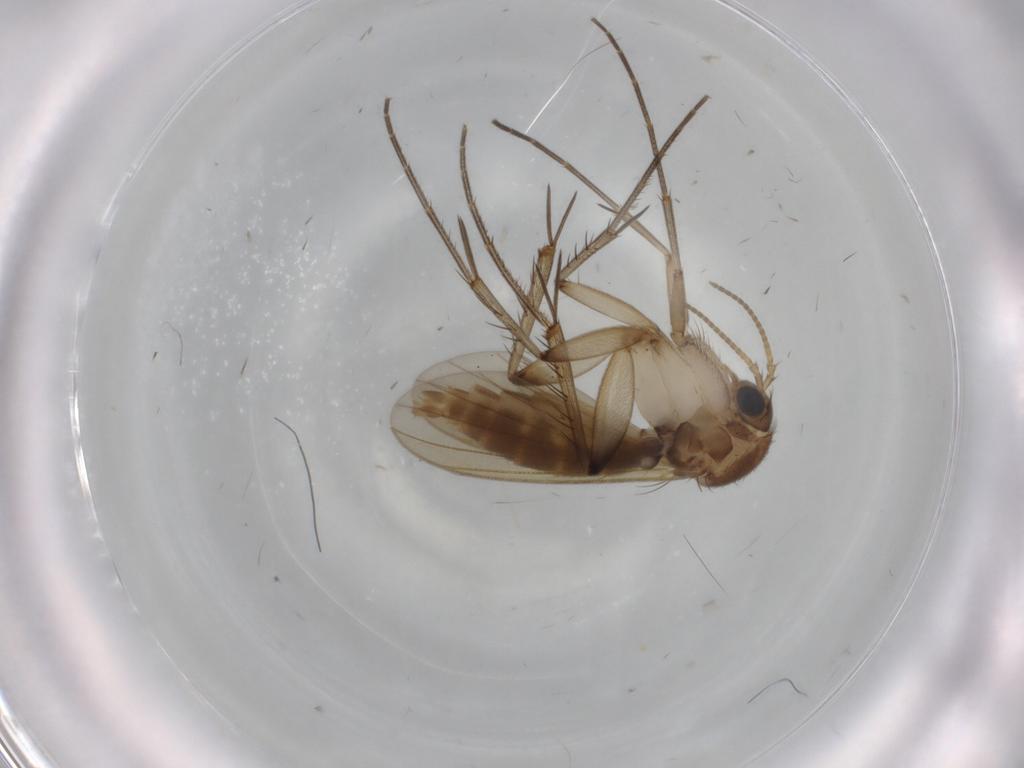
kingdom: Animalia
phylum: Arthropoda
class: Insecta
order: Diptera
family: Mycetophilidae
